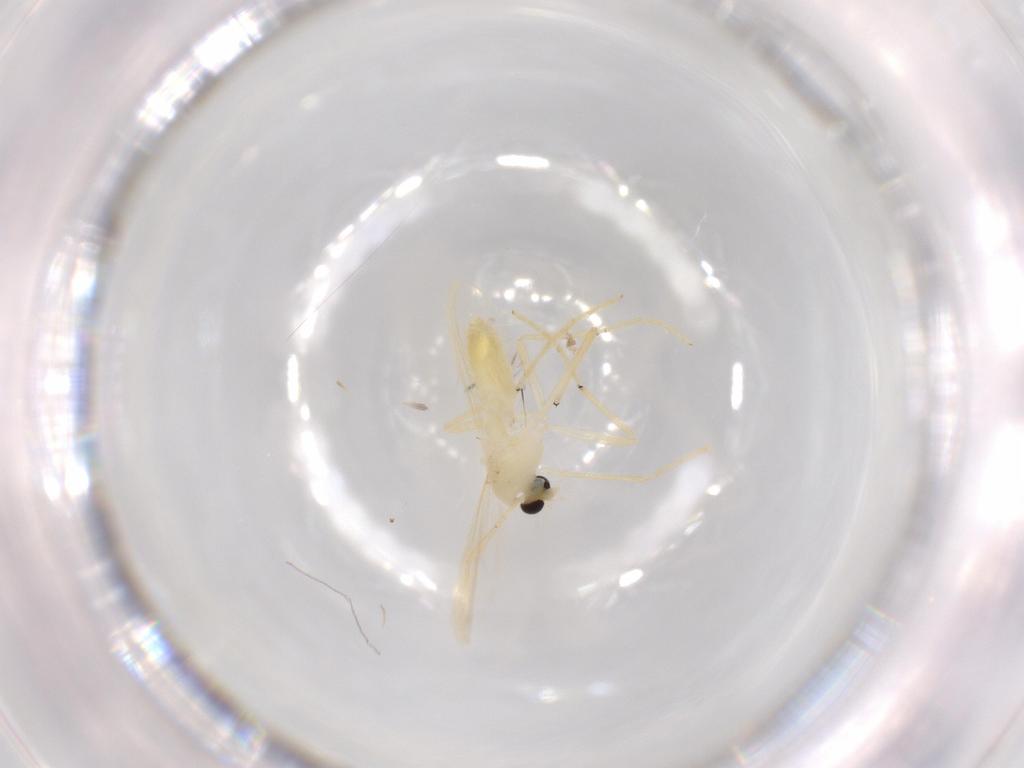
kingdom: Animalia
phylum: Arthropoda
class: Insecta
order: Diptera
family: Chironomidae
